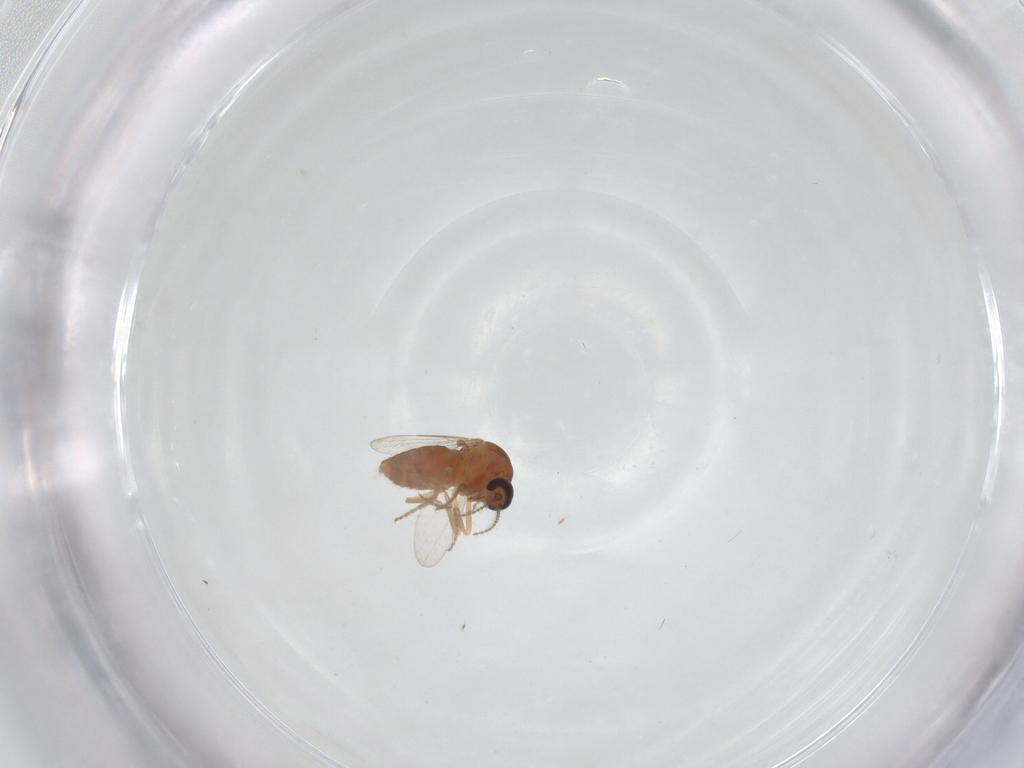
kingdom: Animalia
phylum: Arthropoda
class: Insecta
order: Diptera
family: Ceratopogonidae
